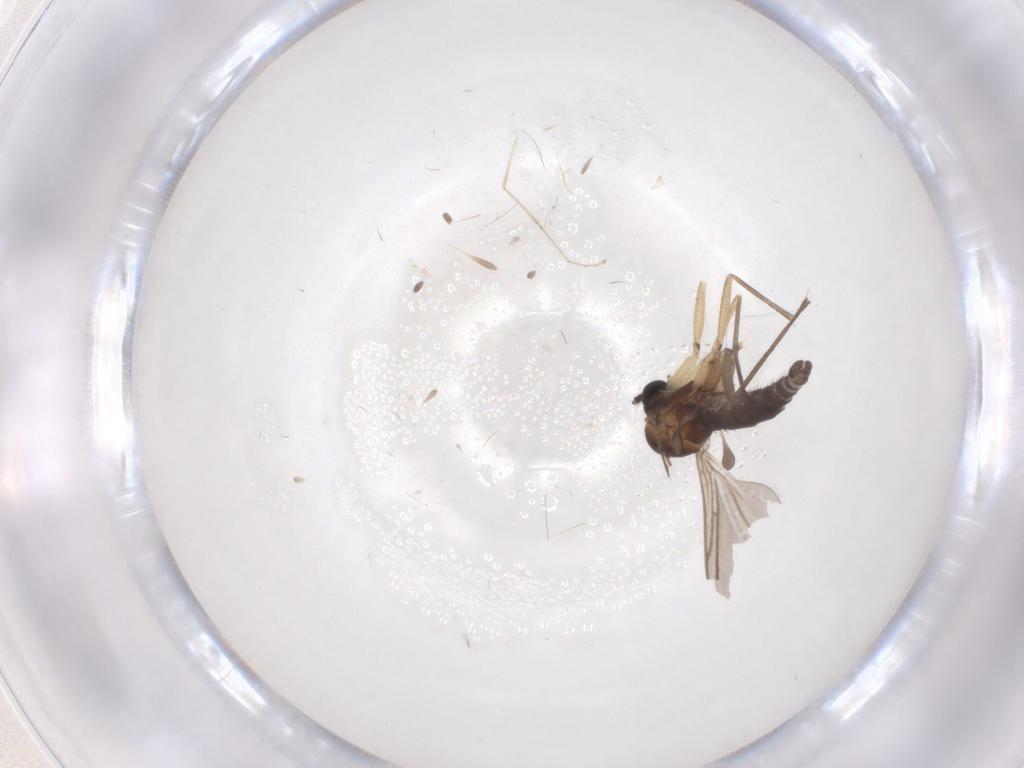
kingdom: Animalia
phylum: Arthropoda
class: Insecta
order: Diptera
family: Sciaridae
